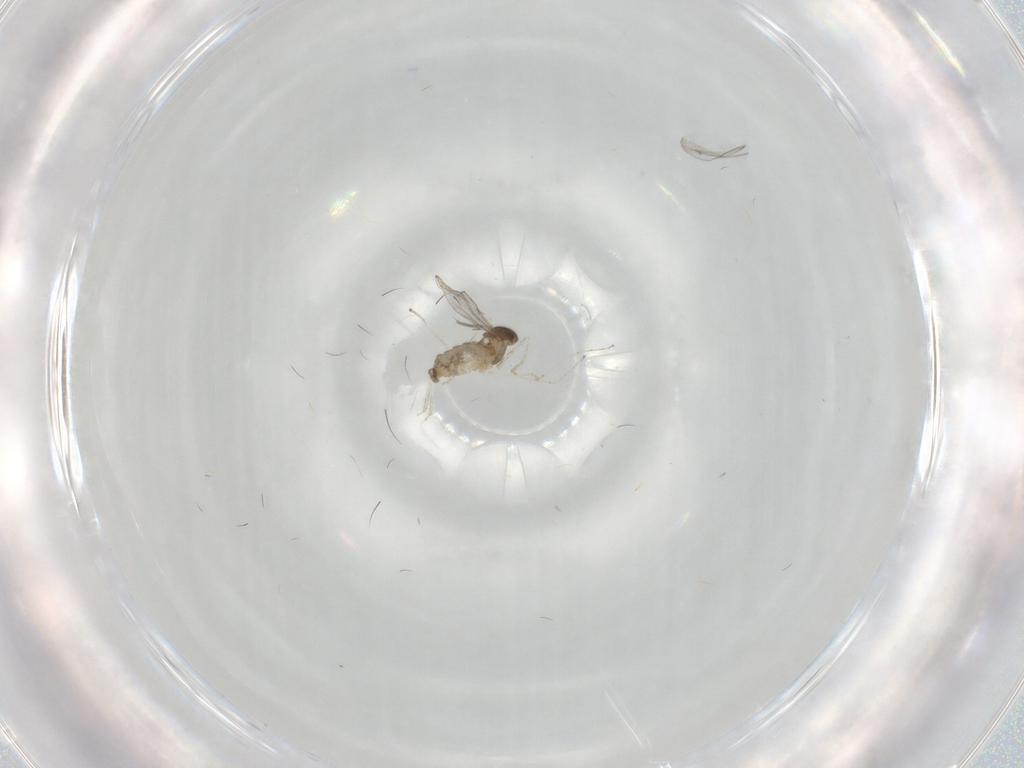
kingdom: Animalia
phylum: Arthropoda
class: Insecta
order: Diptera
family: Cecidomyiidae
